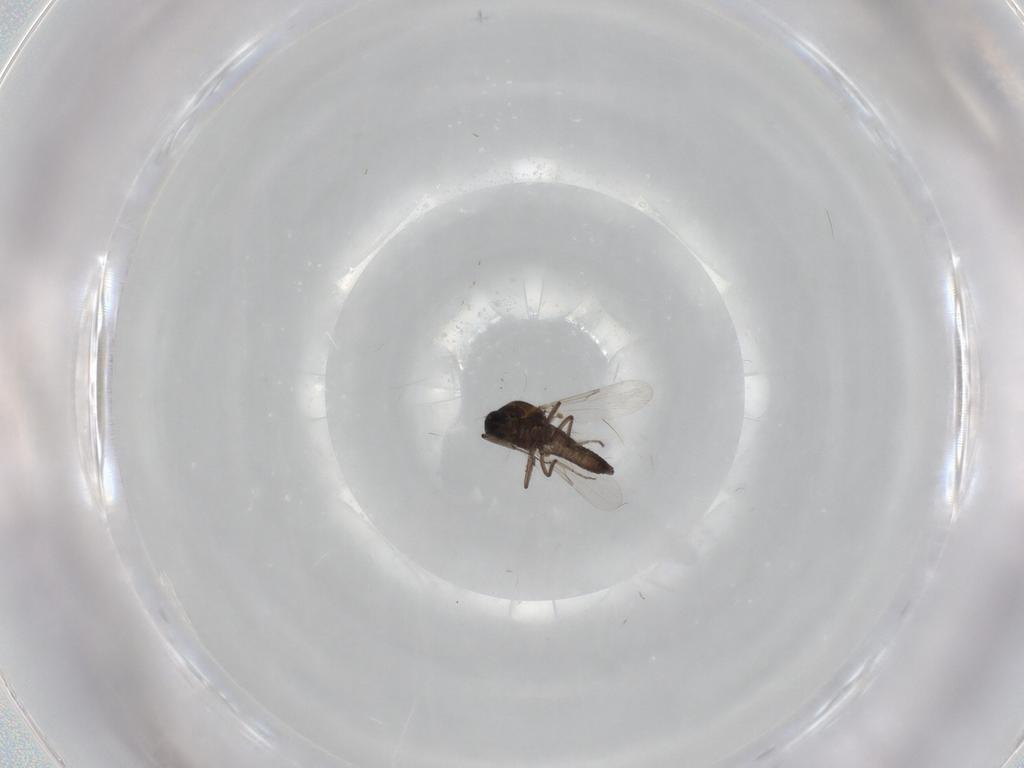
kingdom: Animalia
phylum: Arthropoda
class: Insecta
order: Diptera
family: Ceratopogonidae
